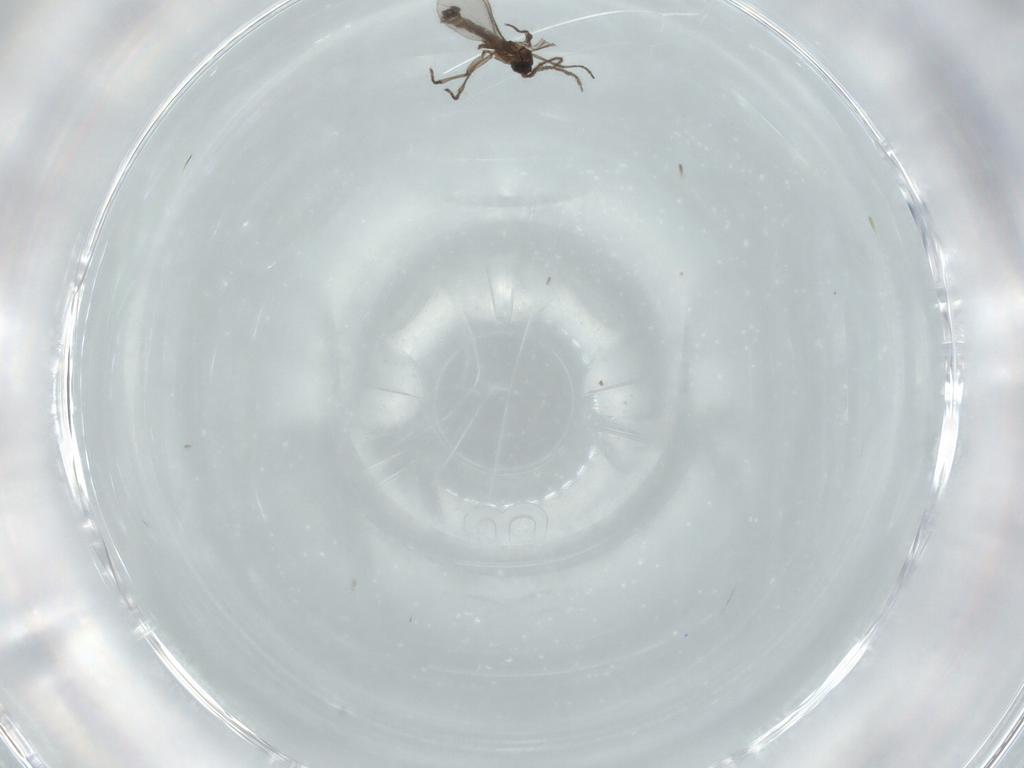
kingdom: Animalia
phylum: Arthropoda
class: Insecta
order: Diptera
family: Sciaridae
